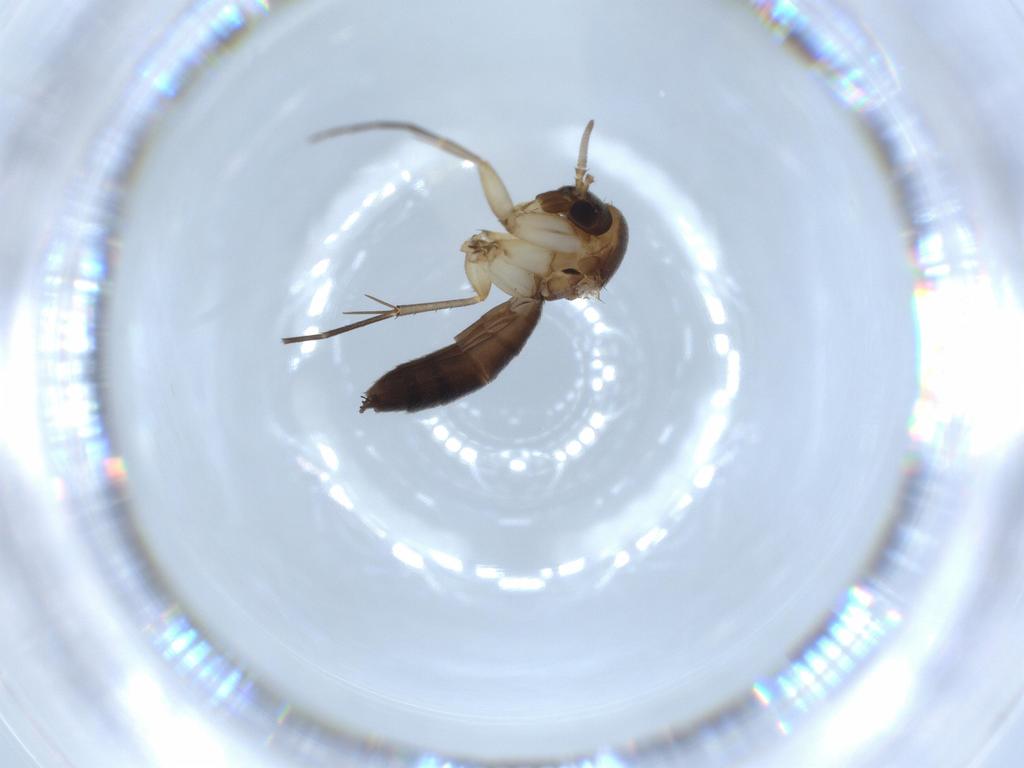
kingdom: Animalia
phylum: Arthropoda
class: Insecta
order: Diptera
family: Mycetophilidae
